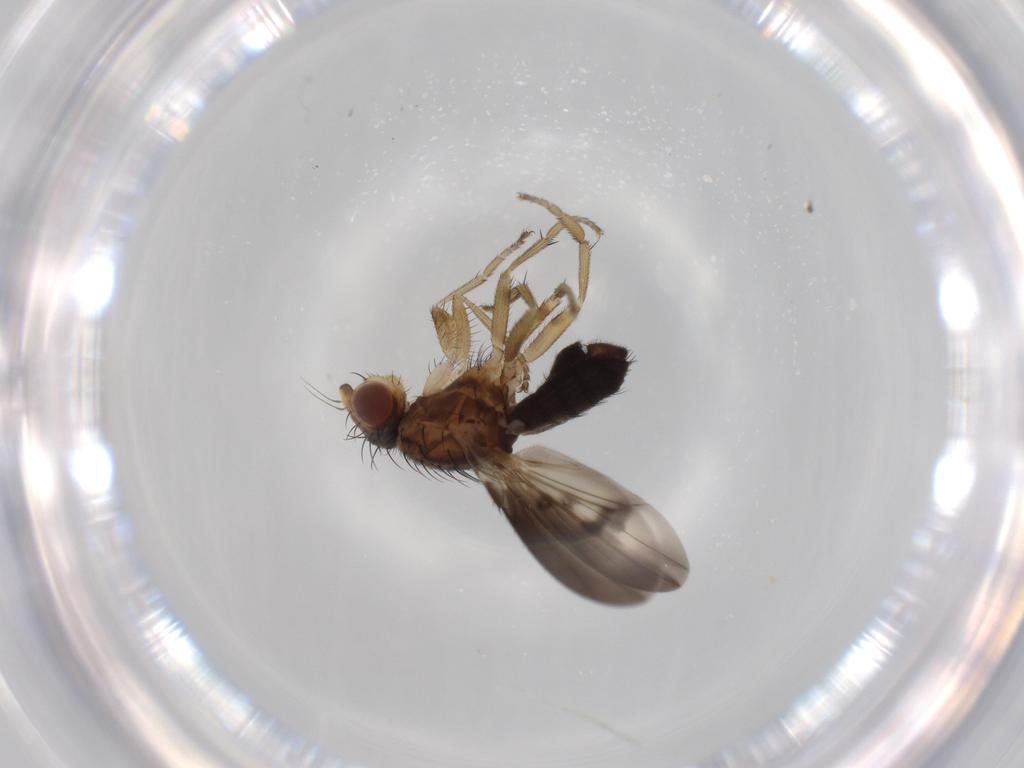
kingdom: Animalia
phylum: Arthropoda
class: Insecta
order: Diptera
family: Heleomyzidae
